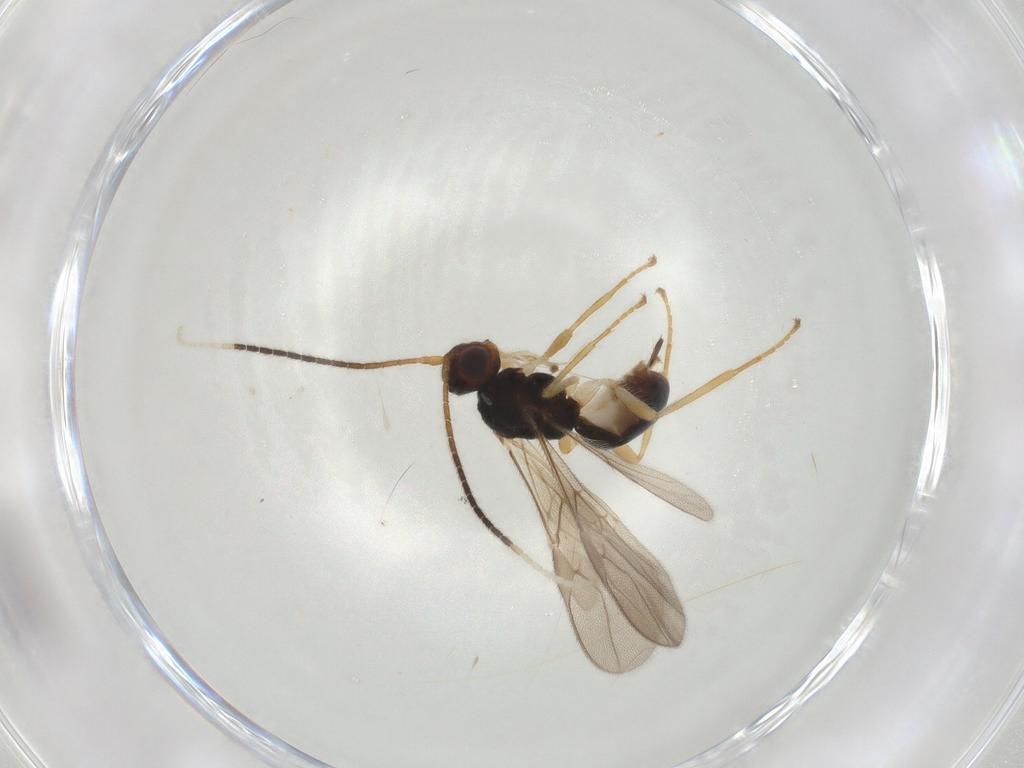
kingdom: Animalia
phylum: Arthropoda
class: Insecta
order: Hymenoptera
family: Braconidae
